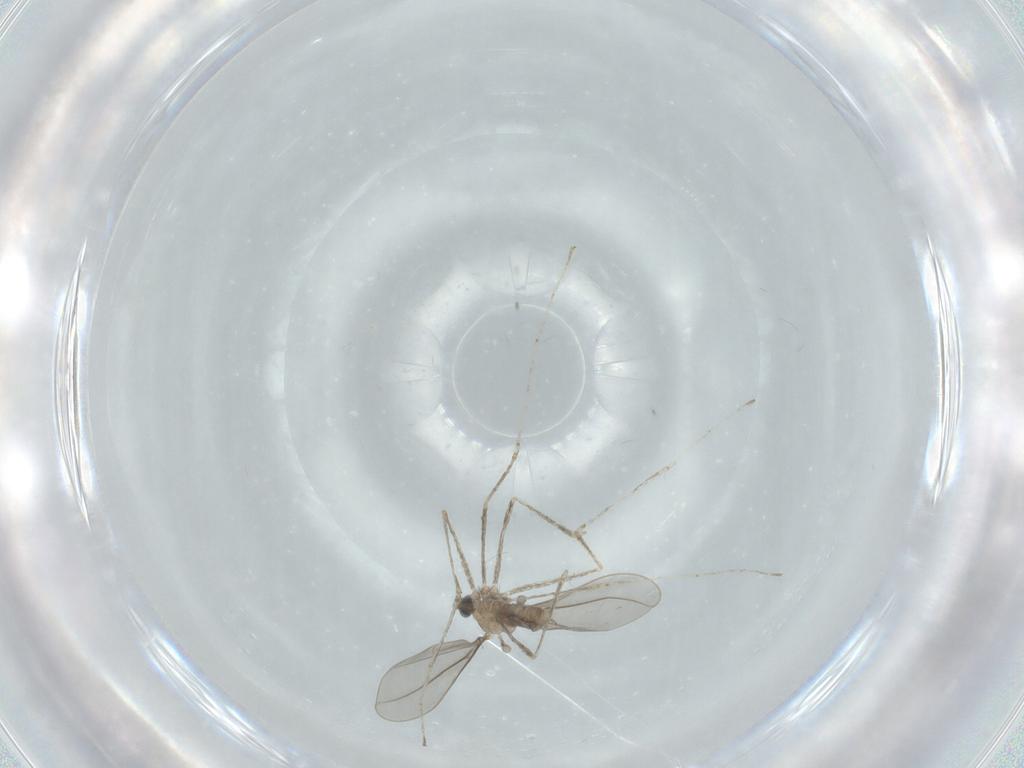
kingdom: Animalia
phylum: Arthropoda
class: Insecta
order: Diptera
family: Cecidomyiidae
